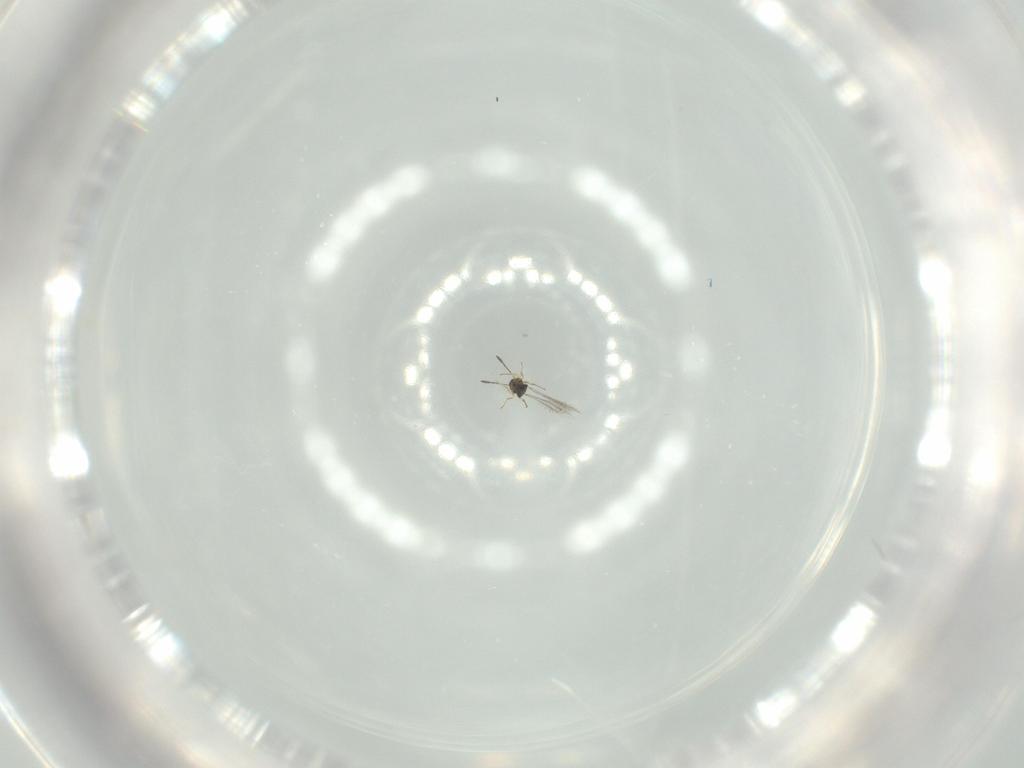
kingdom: Animalia
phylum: Arthropoda
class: Insecta
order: Hymenoptera
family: Mymaridae
